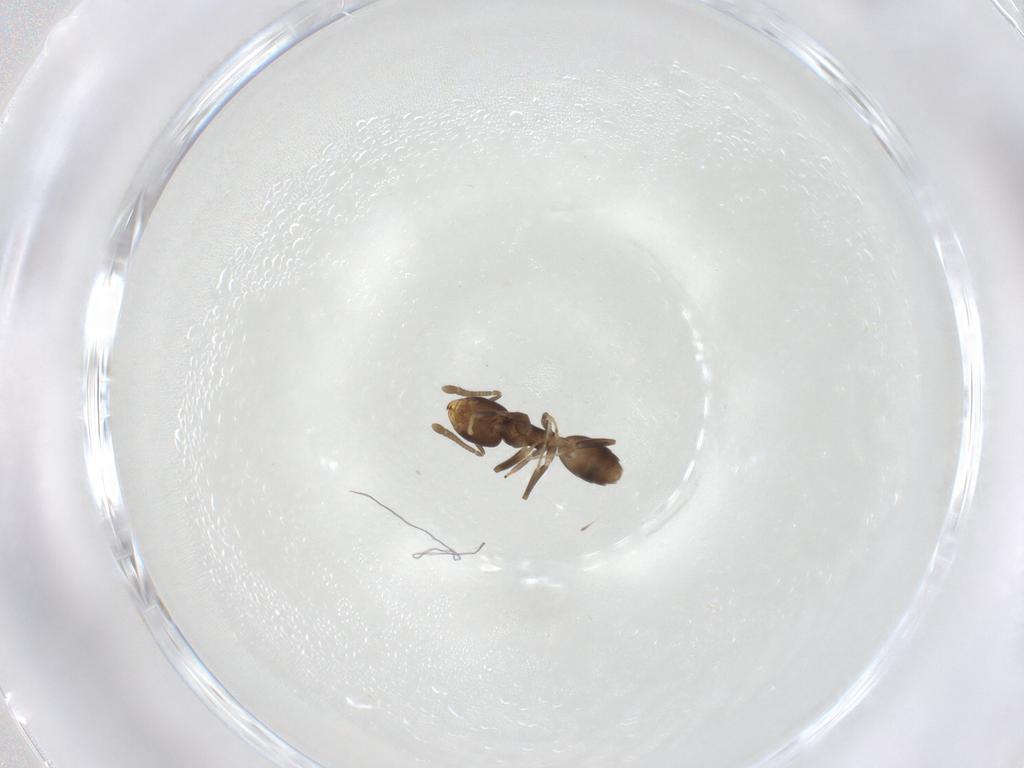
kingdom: Animalia
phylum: Arthropoda
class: Insecta
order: Hymenoptera
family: Formicidae
